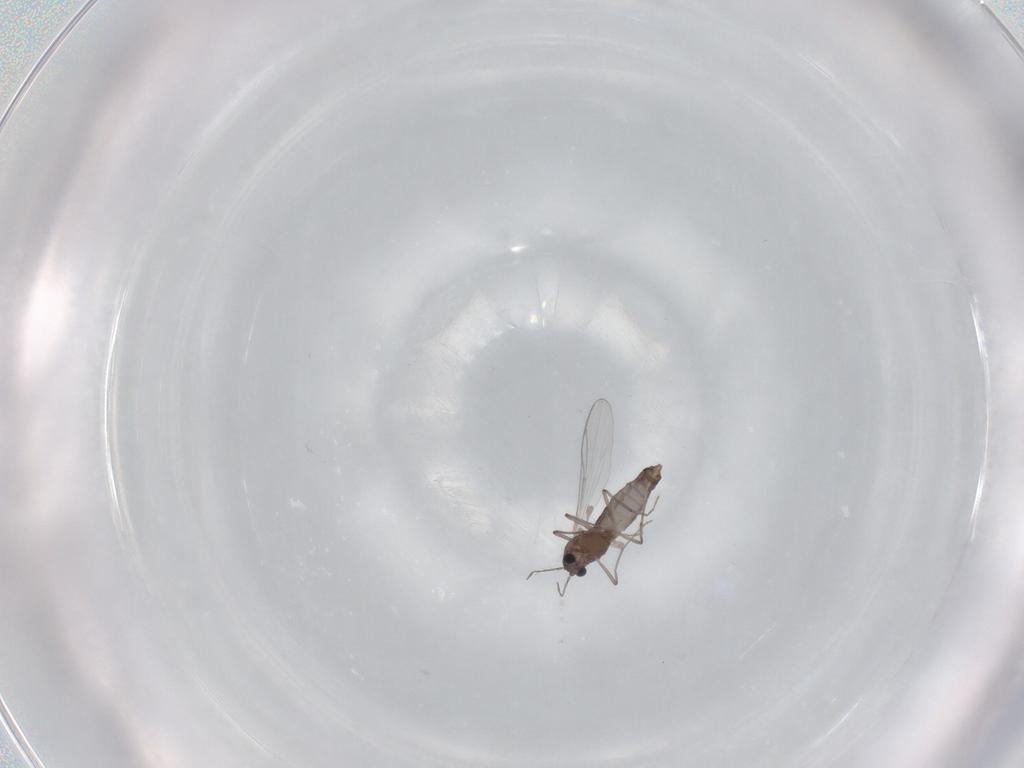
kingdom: Animalia
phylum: Arthropoda
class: Insecta
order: Diptera
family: Chironomidae
